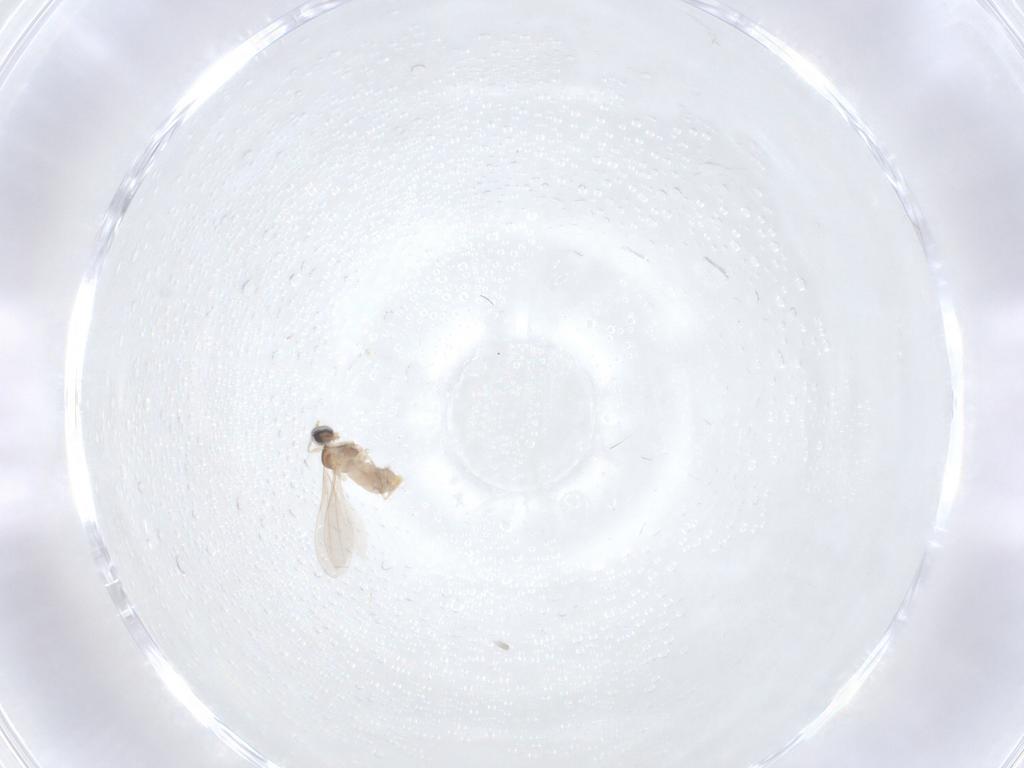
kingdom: Animalia
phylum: Arthropoda
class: Insecta
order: Diptera
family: Cecidomyiidae
